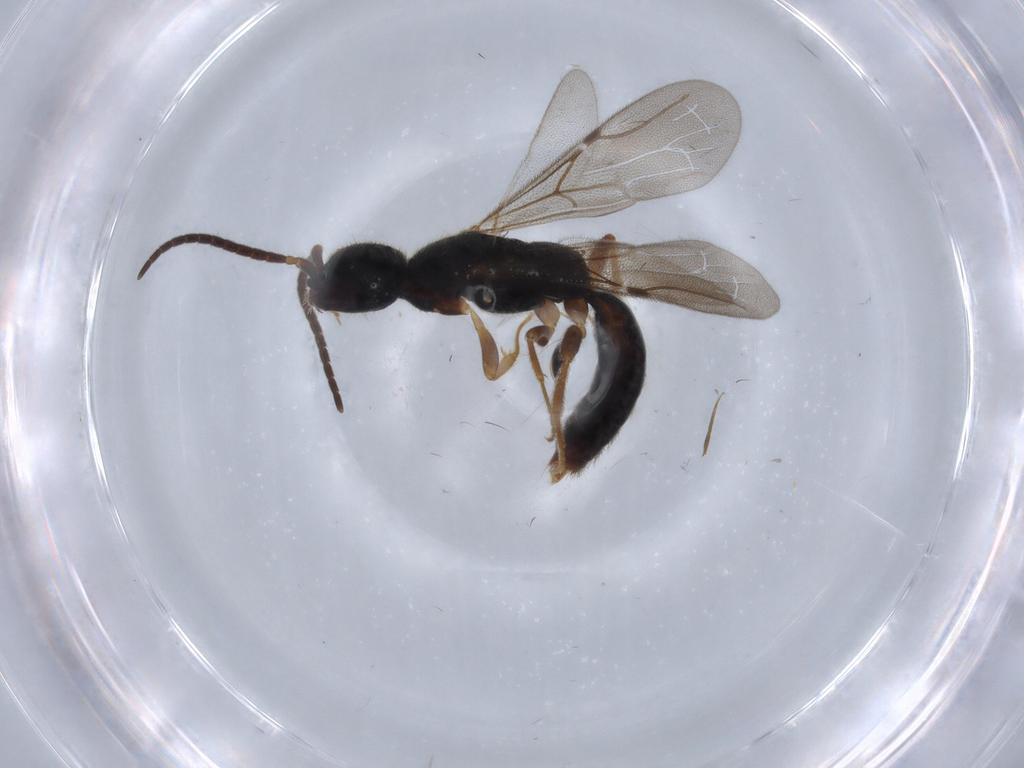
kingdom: Animalia
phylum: Arthropoda
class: Insecta
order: Hymenoptera
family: Bethylidae
